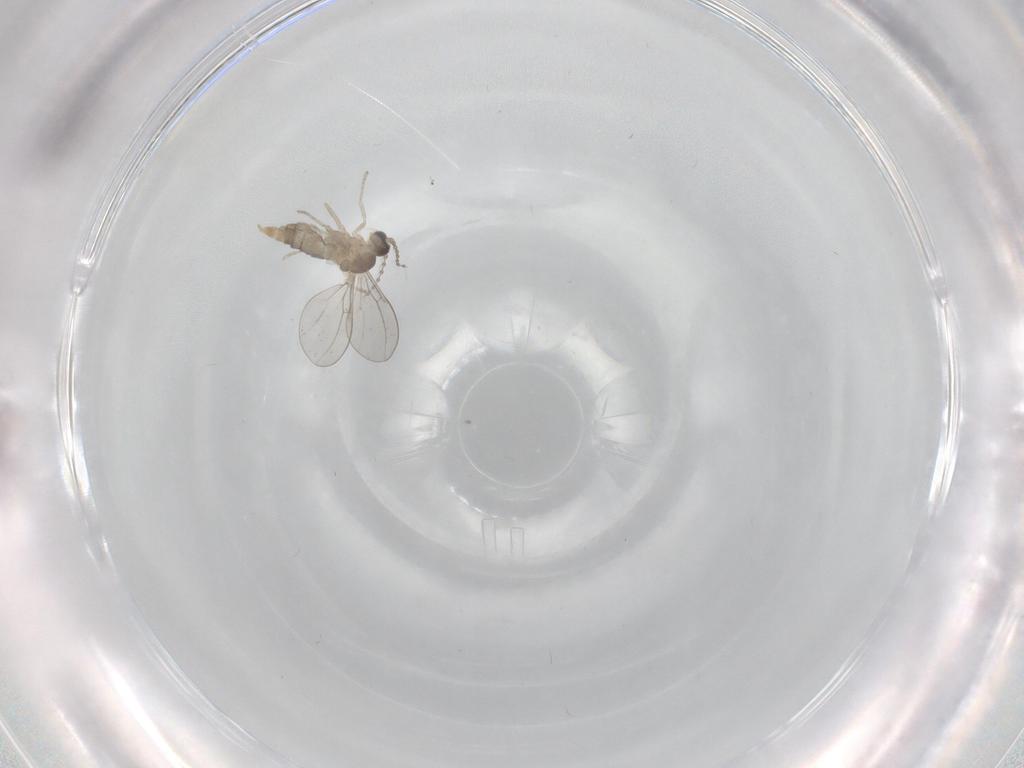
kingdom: Animalia
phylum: Arthropoda
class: Insecta
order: Diptera
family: Cecidomyiidae
